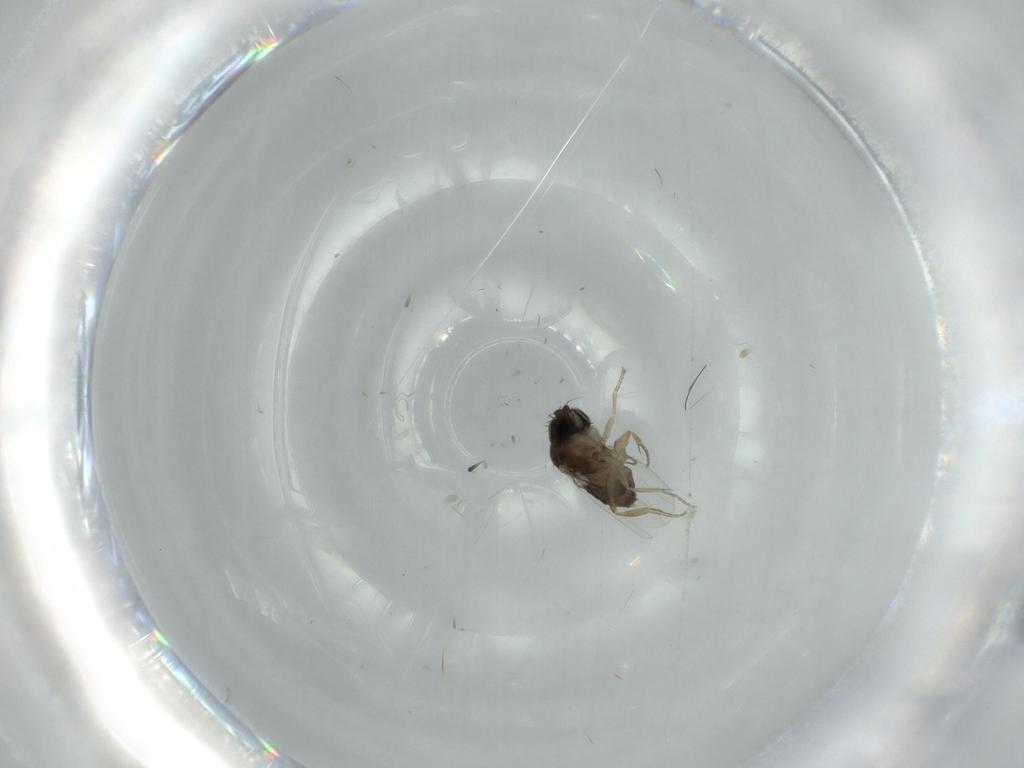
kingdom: Animalia
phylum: Arthropoda
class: Insecta
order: Diptera
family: Phoridae
